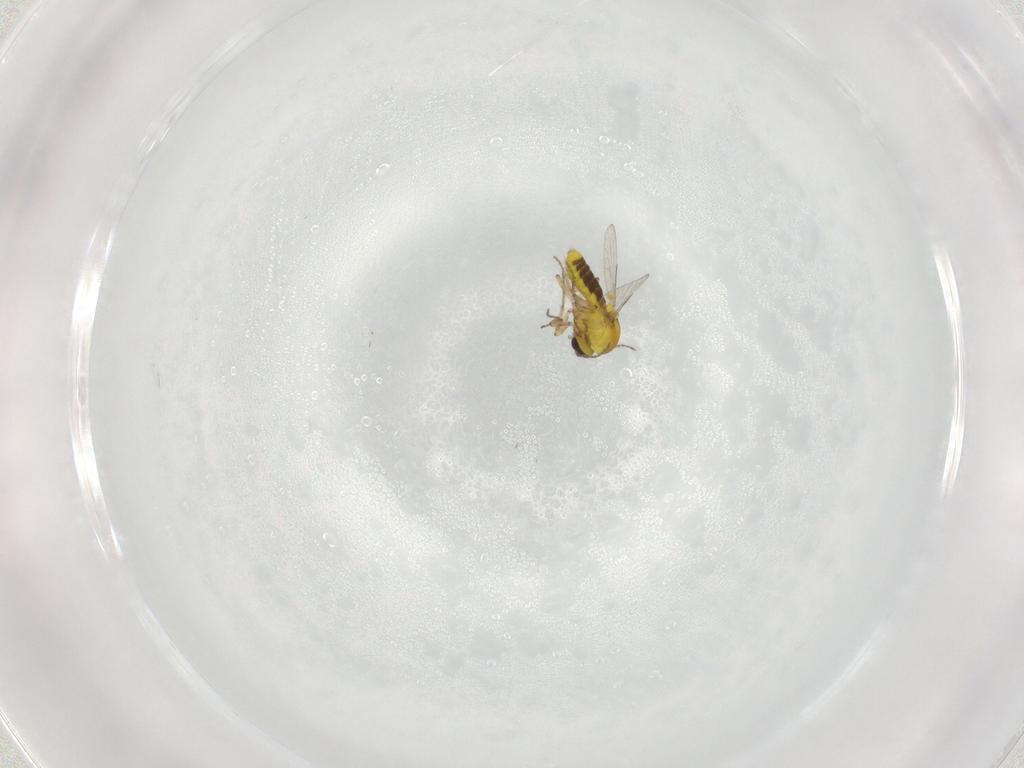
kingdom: Animalia
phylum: Arthropoda
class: Insecta
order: Diptera
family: Ceratopogonidae
